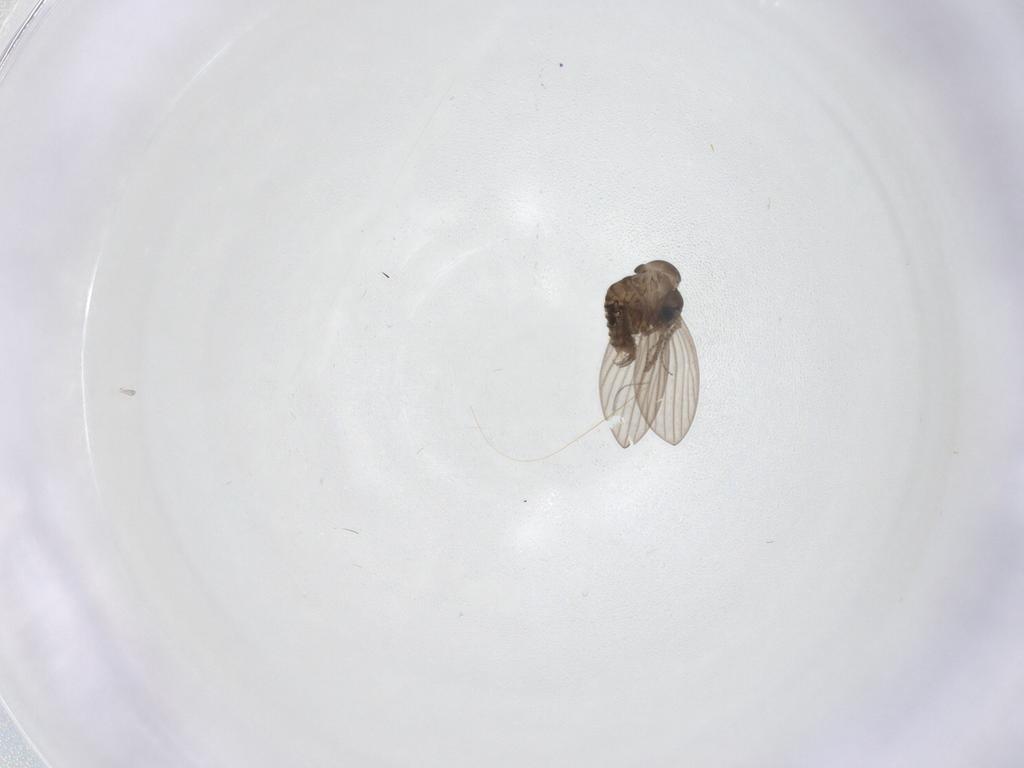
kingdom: Animalia
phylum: Arthropoda
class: Insecta
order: Diptera
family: Psychodidae
